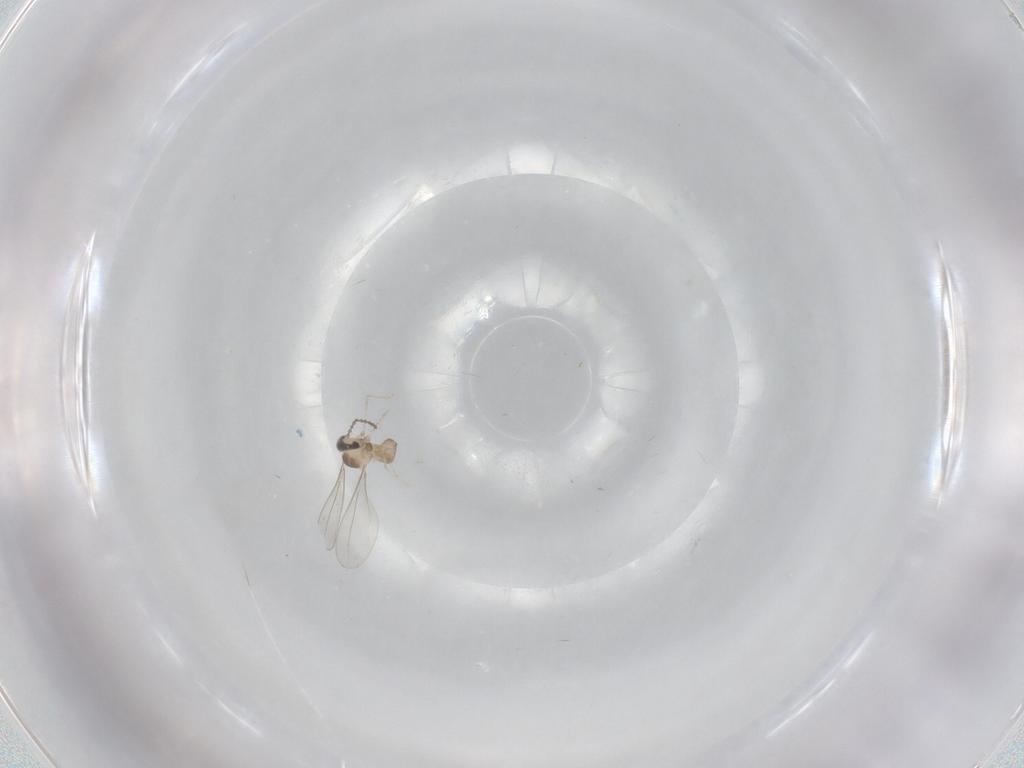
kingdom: Animalia
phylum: Arthropoda
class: Insecta
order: Diptera
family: Cecidomyiidae
